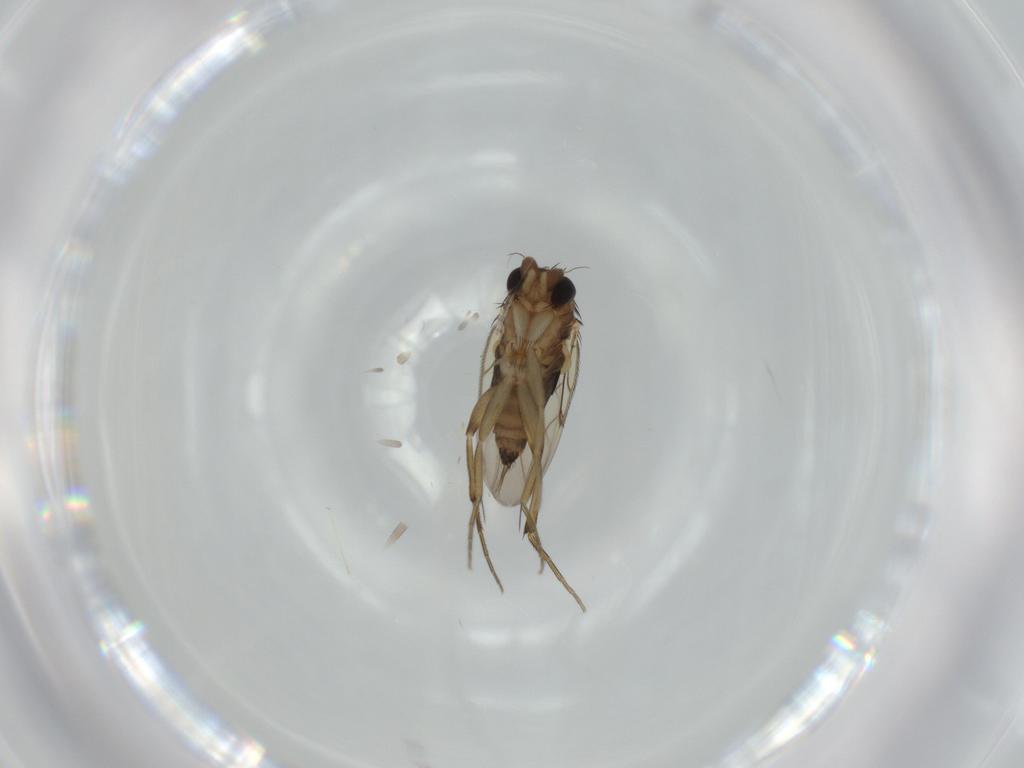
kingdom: Animalia
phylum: Arthropoda
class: Insecta
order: Diptera
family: Phoridae
